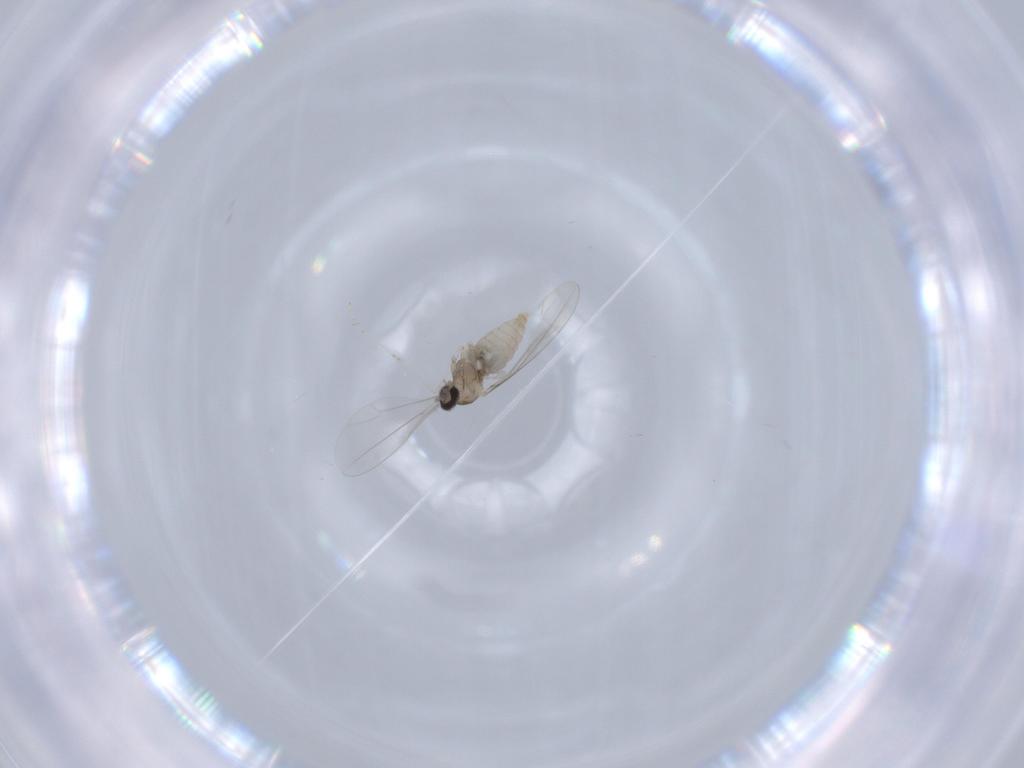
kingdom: Animalia
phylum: Arthropoda
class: Insecta
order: Diptera
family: Cecidomyiidae
